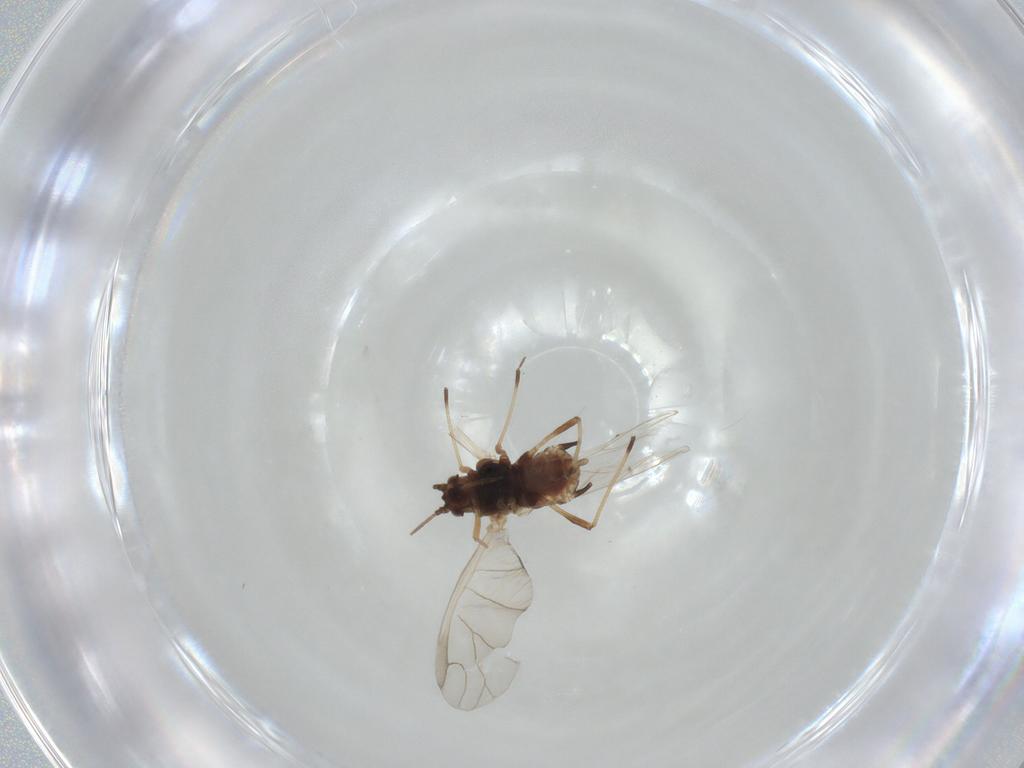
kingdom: Animalia
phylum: Arthropoda
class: Insecta
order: Hemiptera
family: Aphididae
